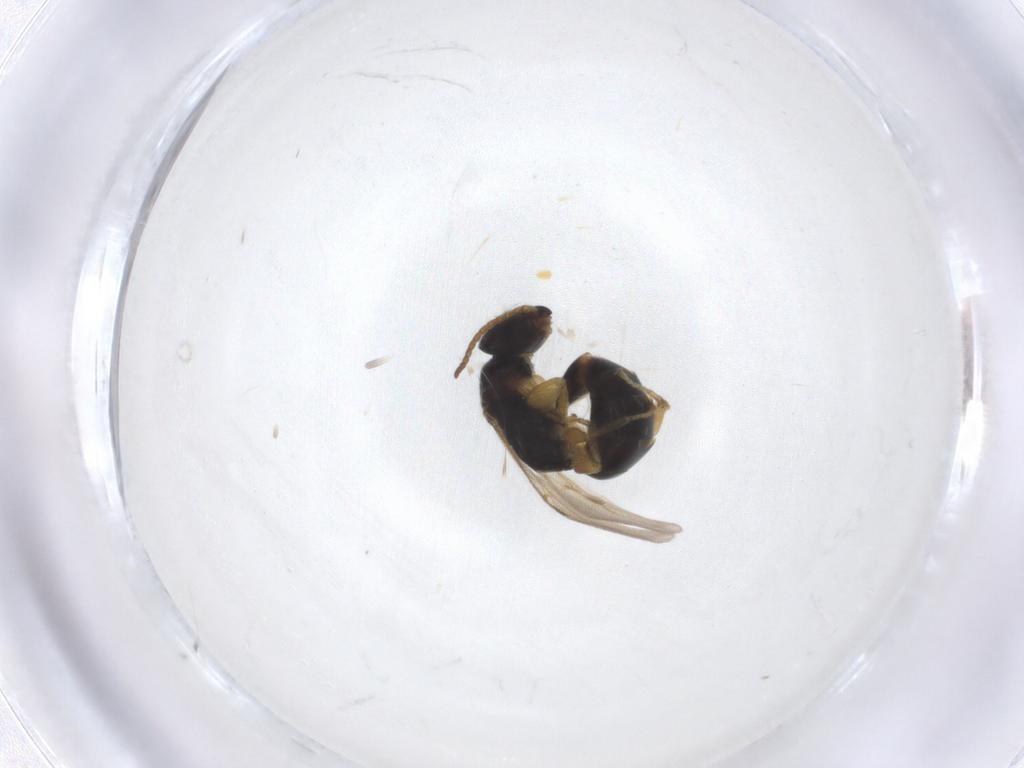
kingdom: Animalia
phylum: Arthropoda
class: Insecta
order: Hymenoptera
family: Bethylidae
